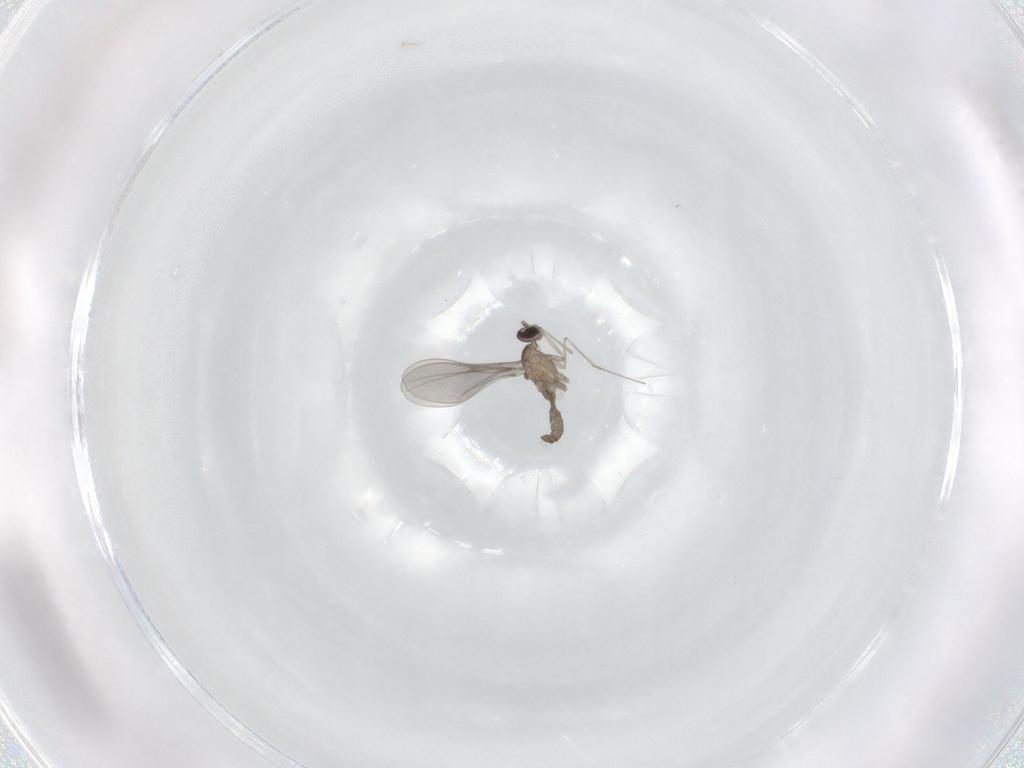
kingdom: Animalia
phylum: Arthropoda
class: Insecta
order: Diptera
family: Cecidomyiidae
